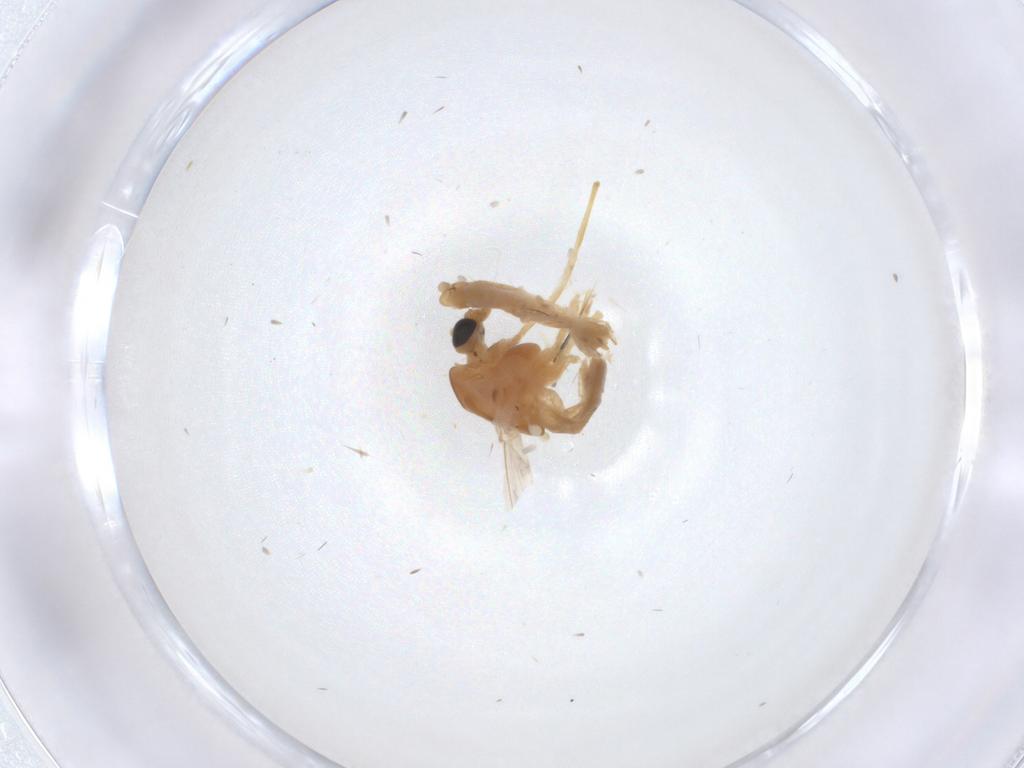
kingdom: Animalia
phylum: Arthropoda
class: Insecta
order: Diptera
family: Chironomidae
